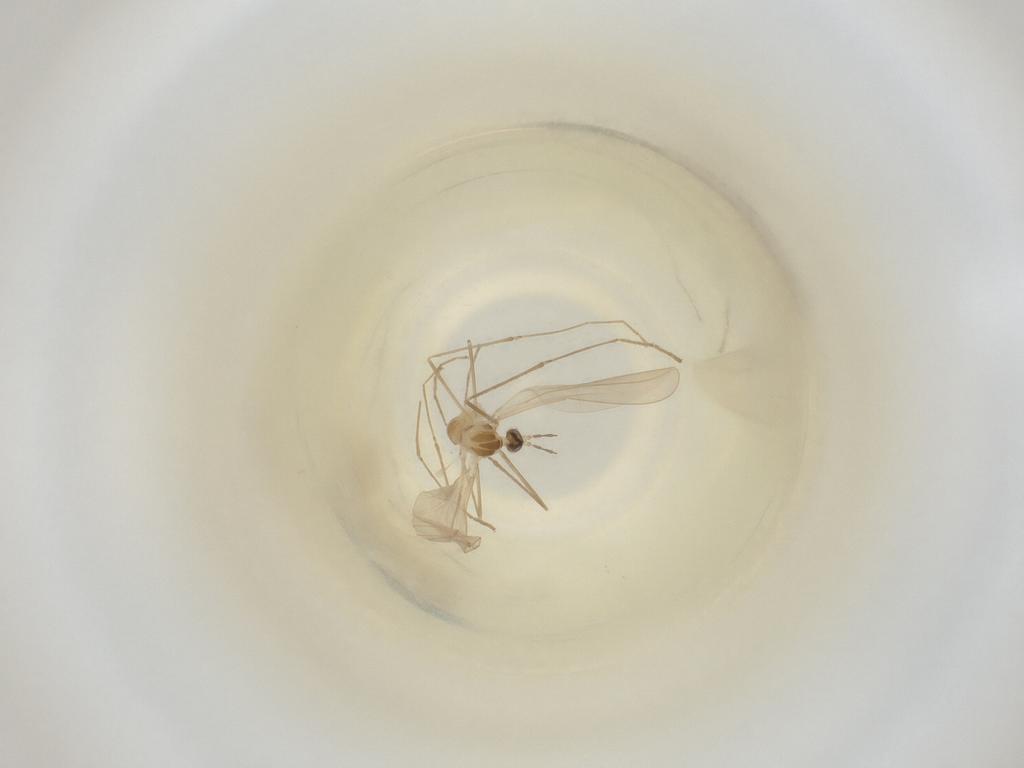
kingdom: Animalia
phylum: Arthropoda
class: Insecta
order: Diptera
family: Cecidomyiidae
